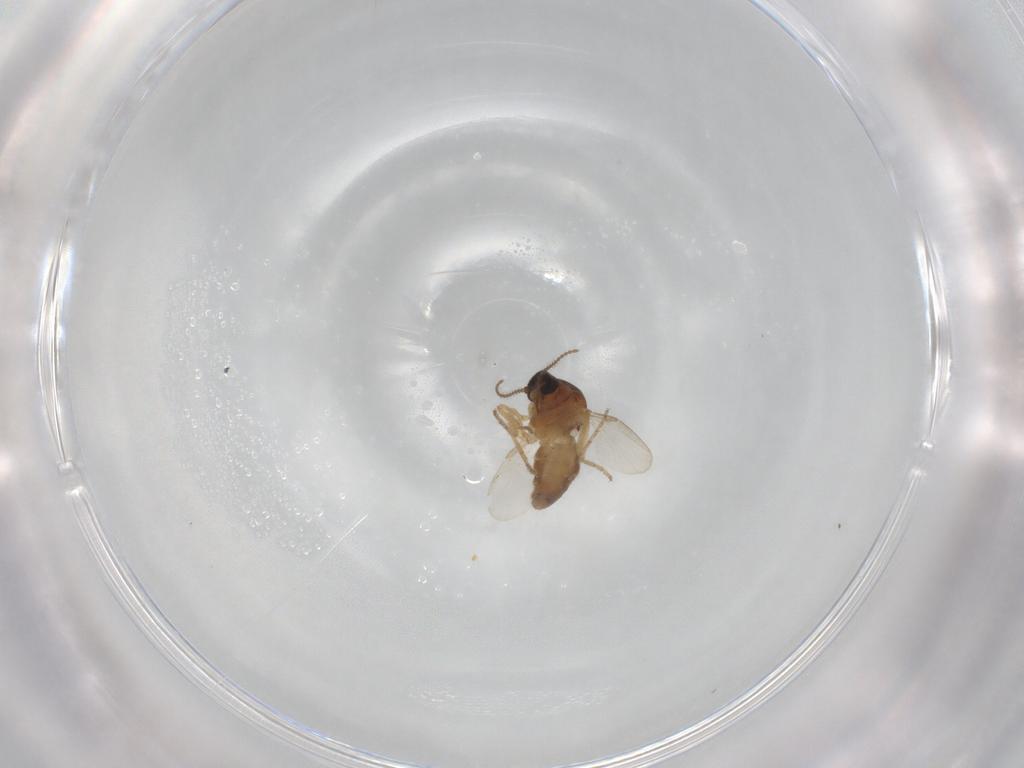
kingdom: Animalia
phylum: Arthropoda
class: Insecta
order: Diptera
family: Ceratopogonidae
